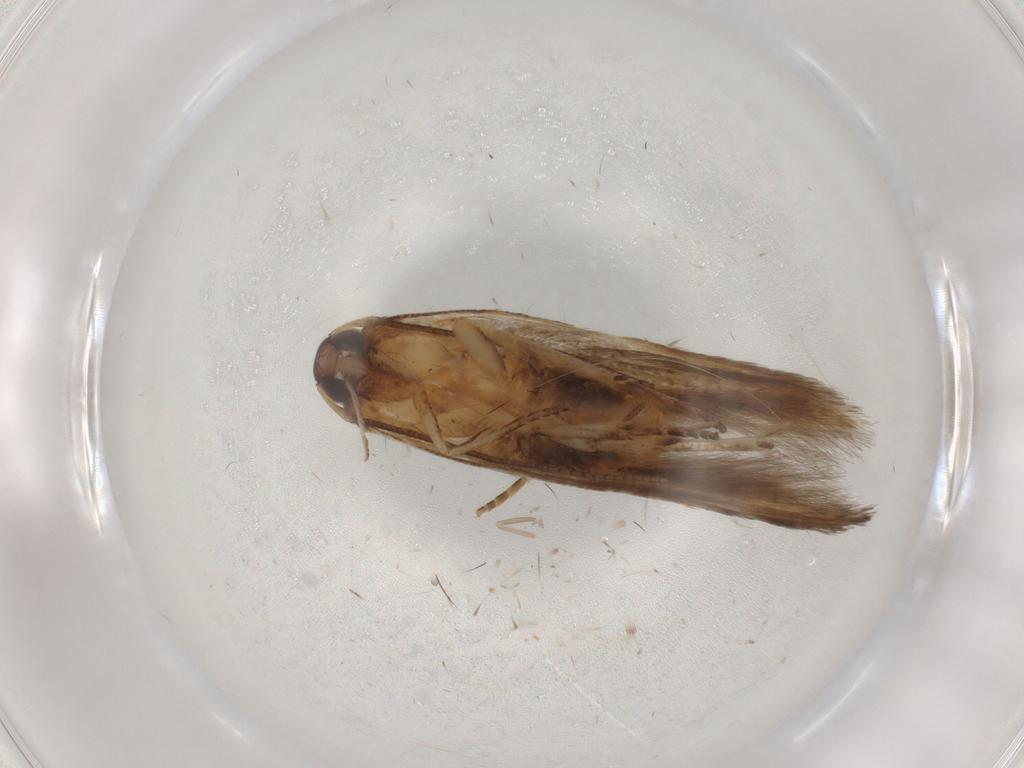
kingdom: Animalia
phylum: Arthropoda
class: Insecta
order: Lepidoptera
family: Cosmopterigidae
